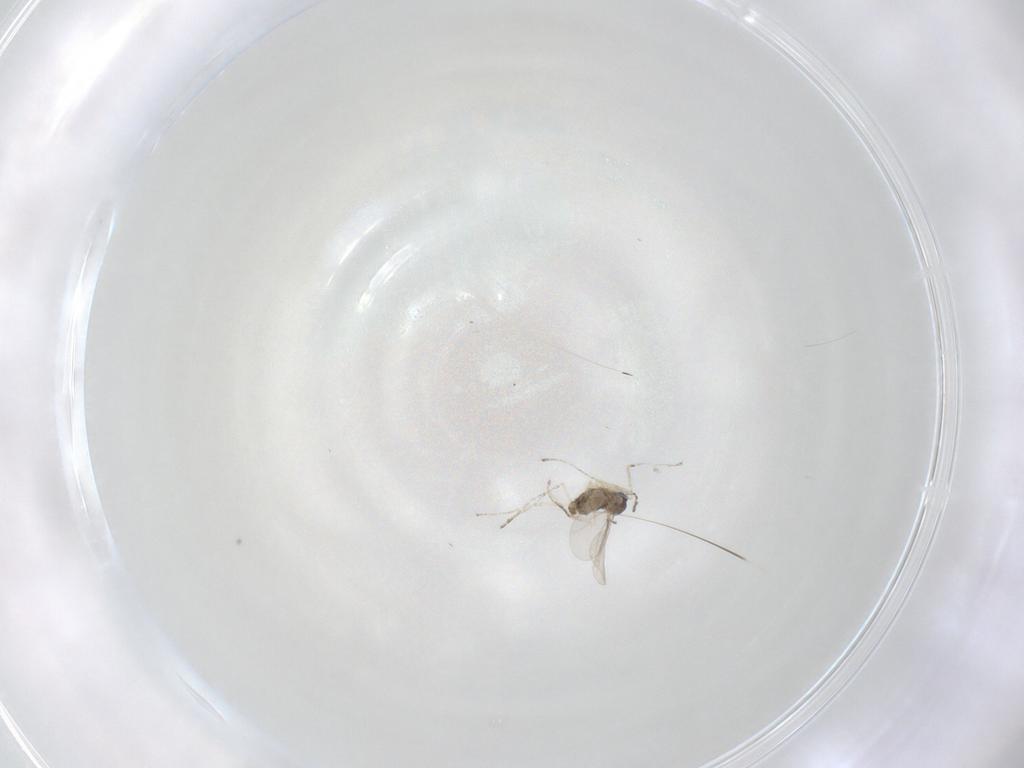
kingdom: Animalia
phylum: Arthropoda
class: Insecta
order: Diptera
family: Cecidomyiidae
